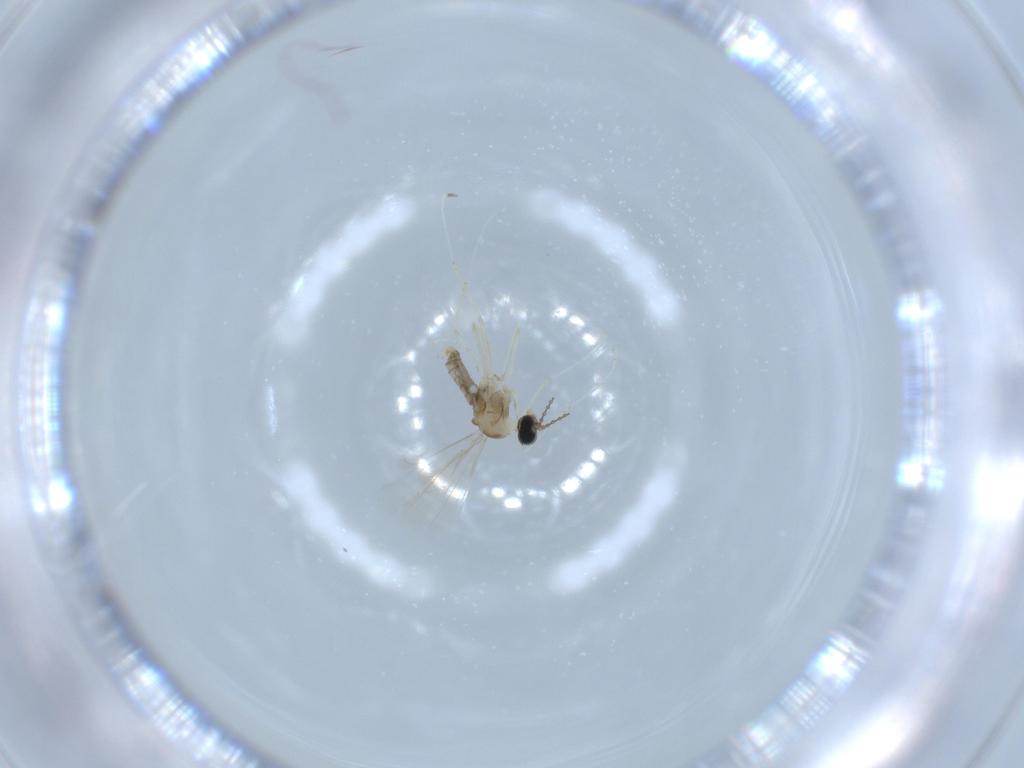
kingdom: Animalia
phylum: Arthropoda
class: Insecta
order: Diptera
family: Cecidomyiidae
